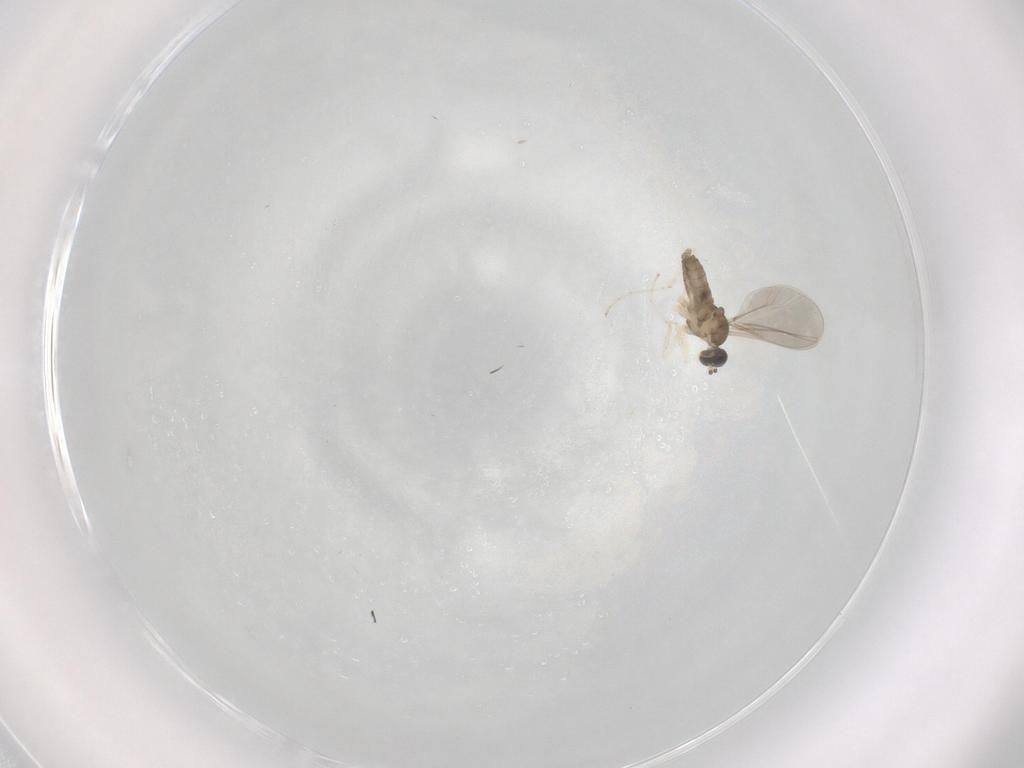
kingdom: Animalia
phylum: Arthropoda
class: Insecta
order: Diptera
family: Cecidomyiidae
